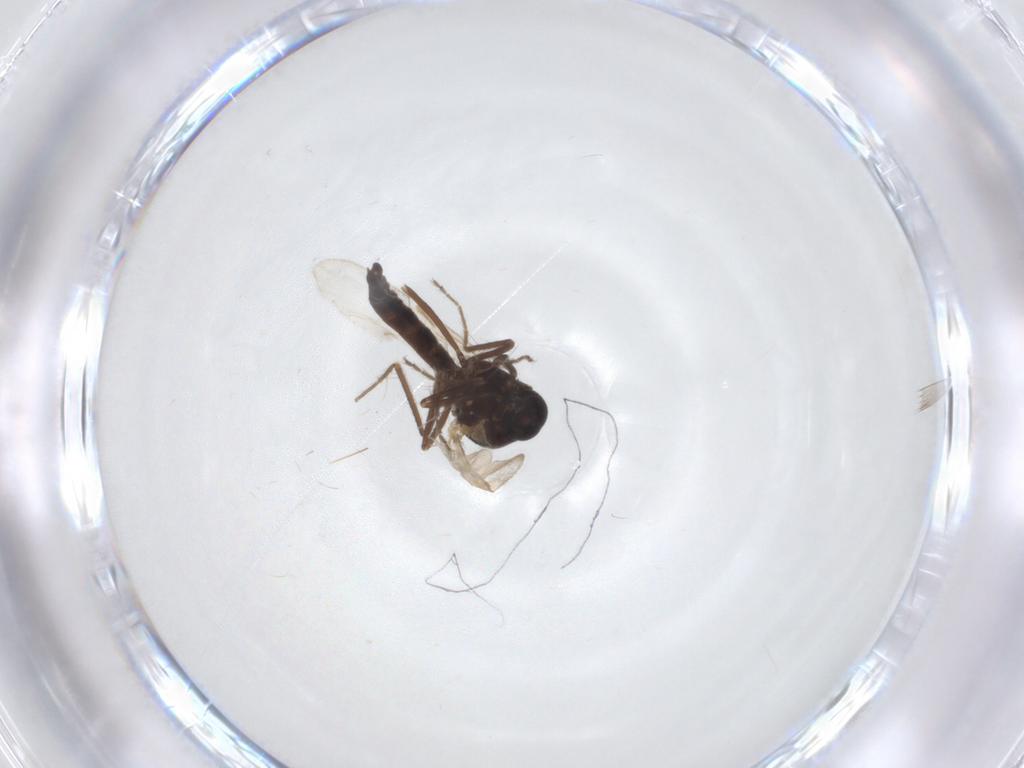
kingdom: Animalia
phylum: Arthropoda
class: Insecta
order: Diptera
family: Ceratopogonidae
